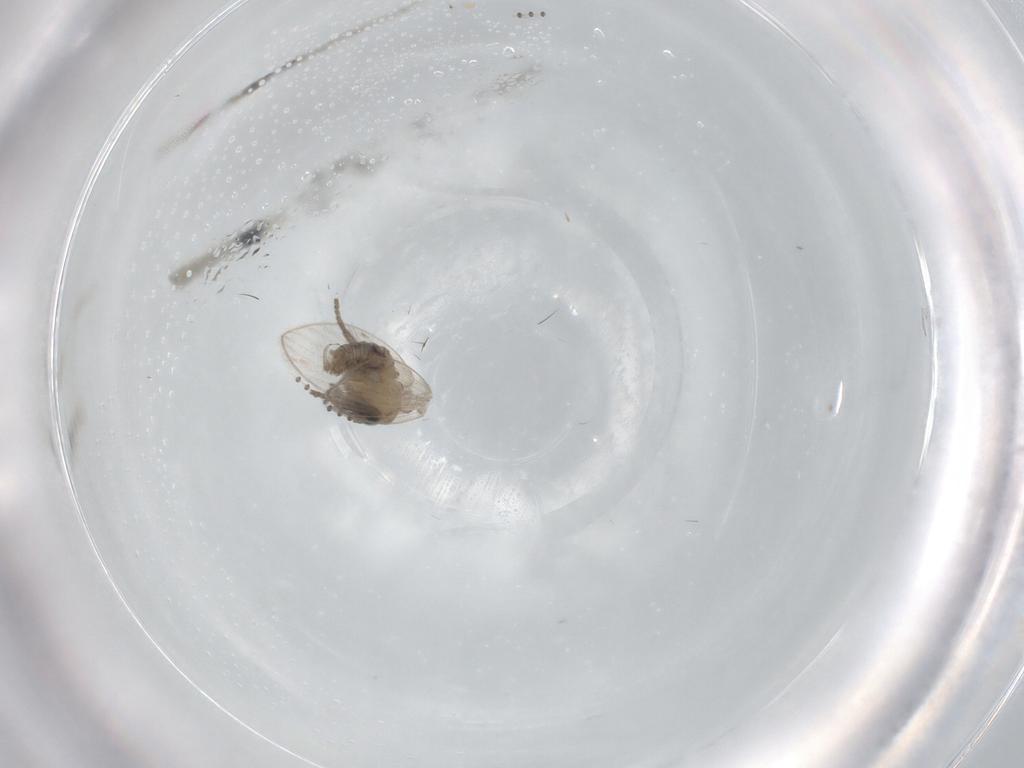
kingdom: Animalia
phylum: Arthropoda
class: Insecta
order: Diptera
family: Psychodidae
